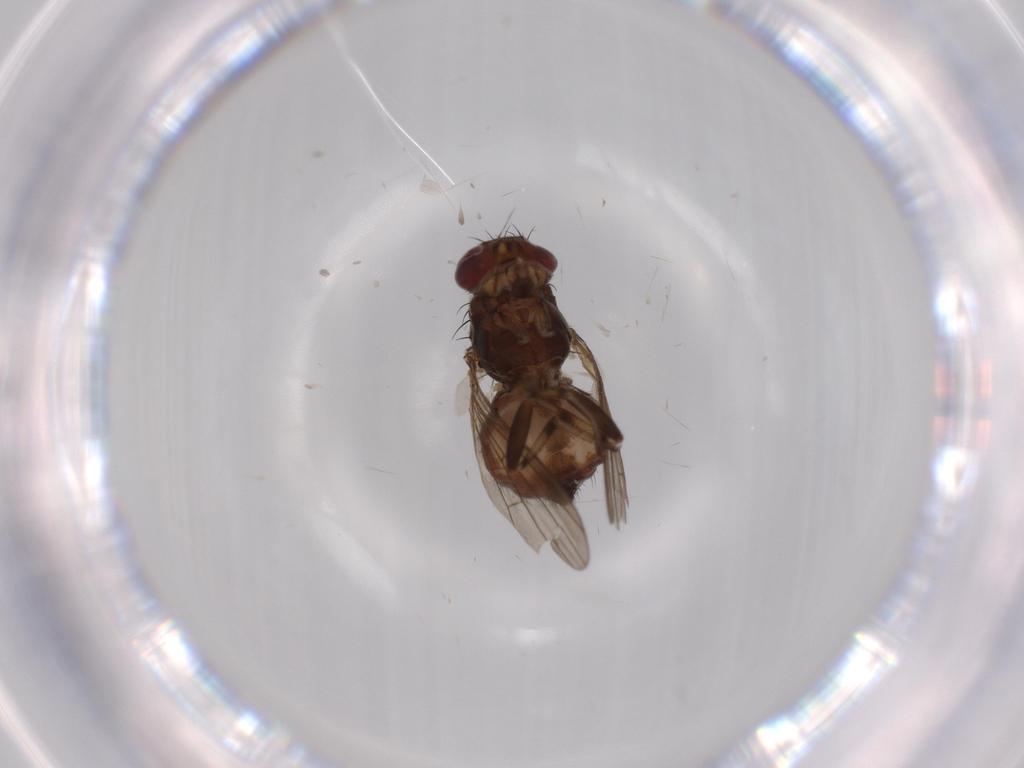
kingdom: Animalia
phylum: Arthropoda
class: Insecta
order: Diptera
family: Heleomyzidae
